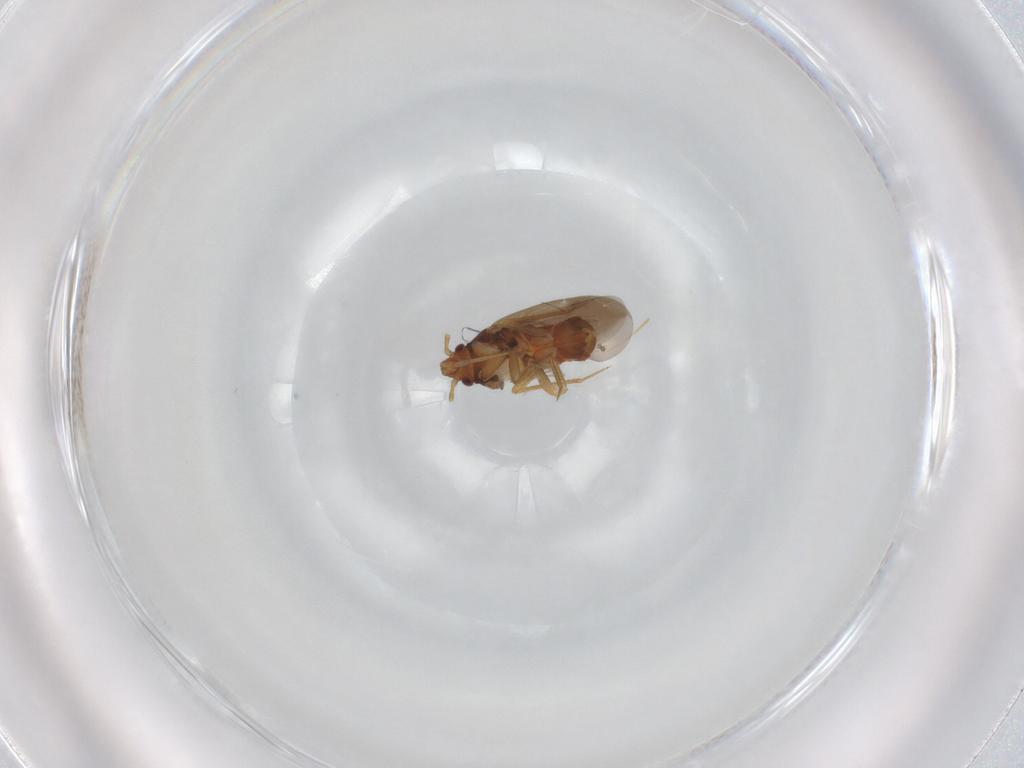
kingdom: Animalia
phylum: Arthropoda
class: Insecta
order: Hemiptera
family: Ceratocombidae
